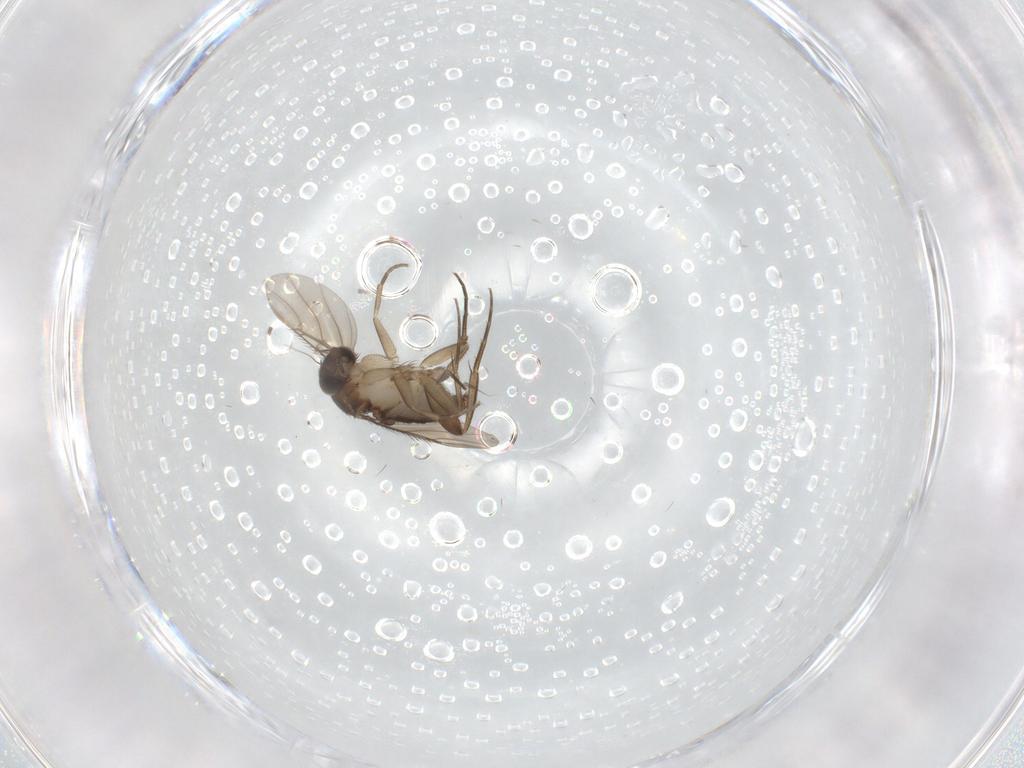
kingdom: Animalia
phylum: Arthropoda
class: Insecta
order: Diptera
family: Phoridae
